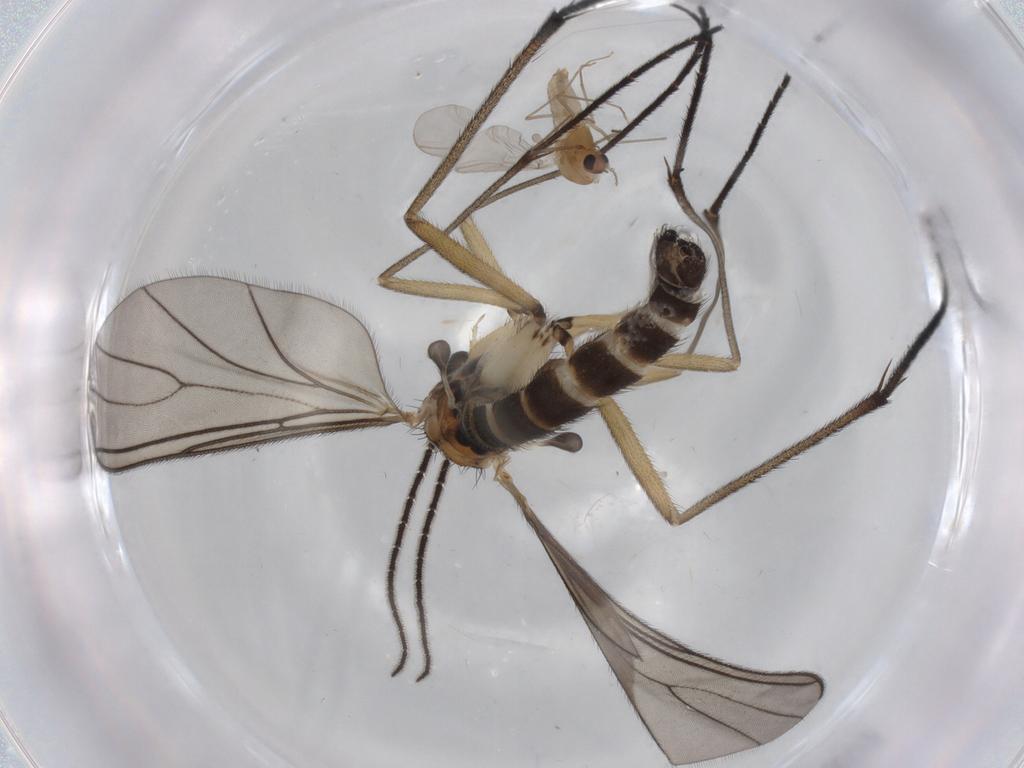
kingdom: Animalia
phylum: Arthropoda
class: Insecta
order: Diptera
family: Sciaridae
